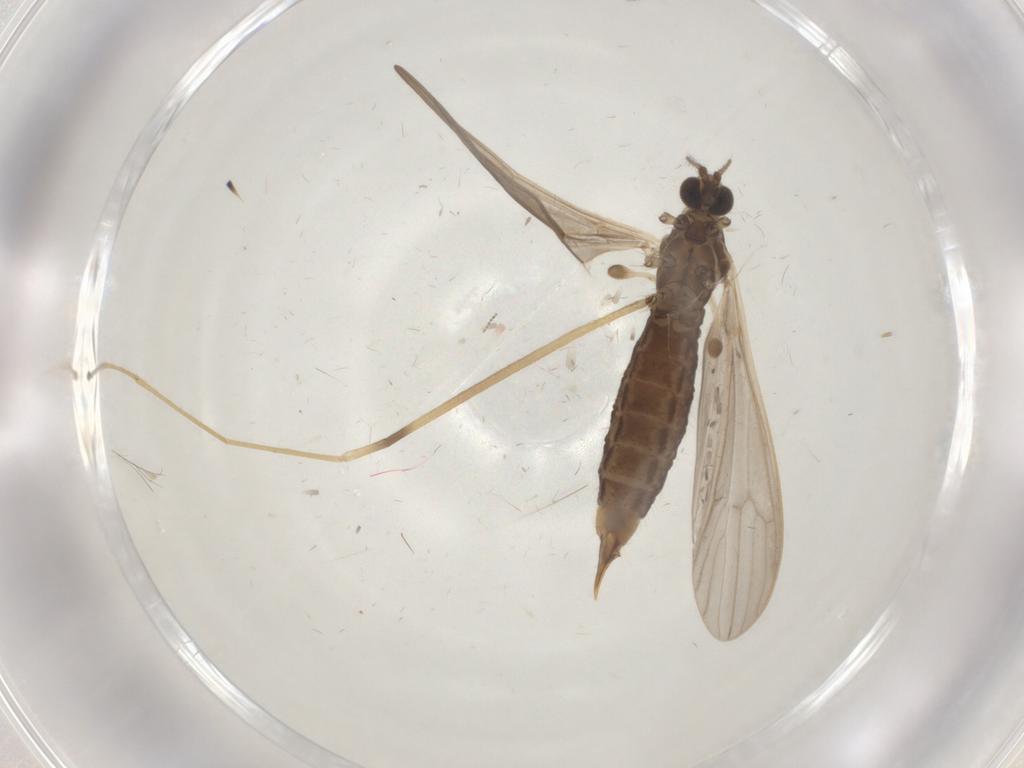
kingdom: Animalia
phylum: Arthropoda
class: Insecta
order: Diptera
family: Limoniidae
